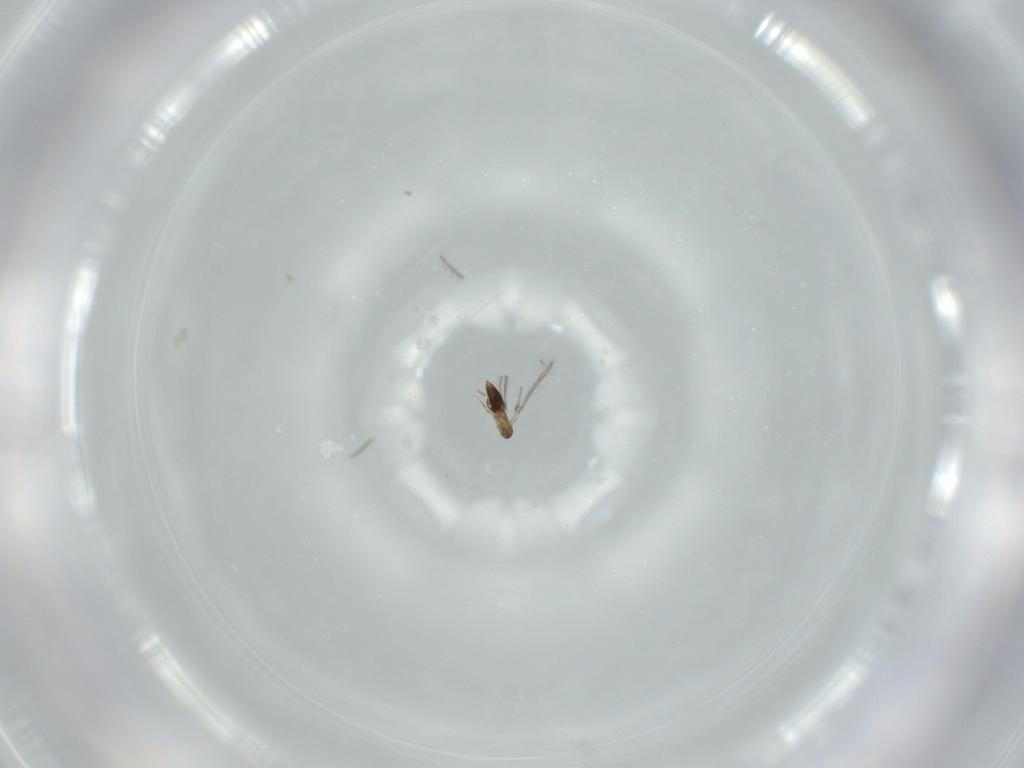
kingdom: Animalia
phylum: Arthropoda
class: Insecta
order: Hymenoptera
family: Mymaridae
